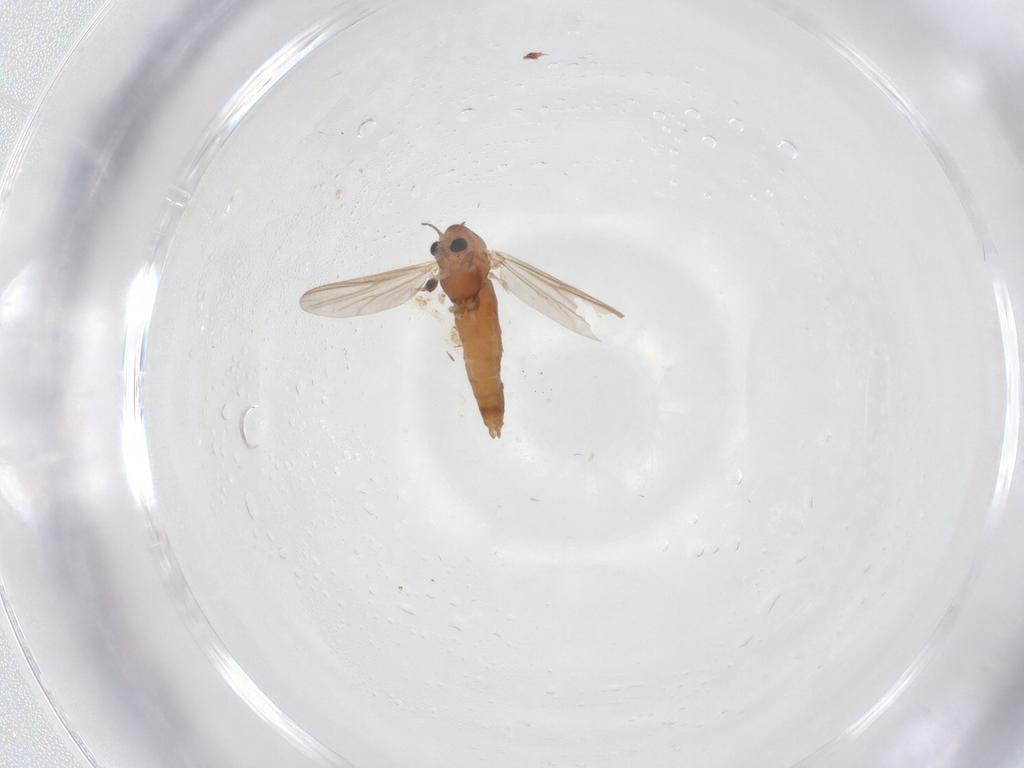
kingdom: Animalia
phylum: Arthropoda
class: Insecta
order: Diptera
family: Chironomidae
